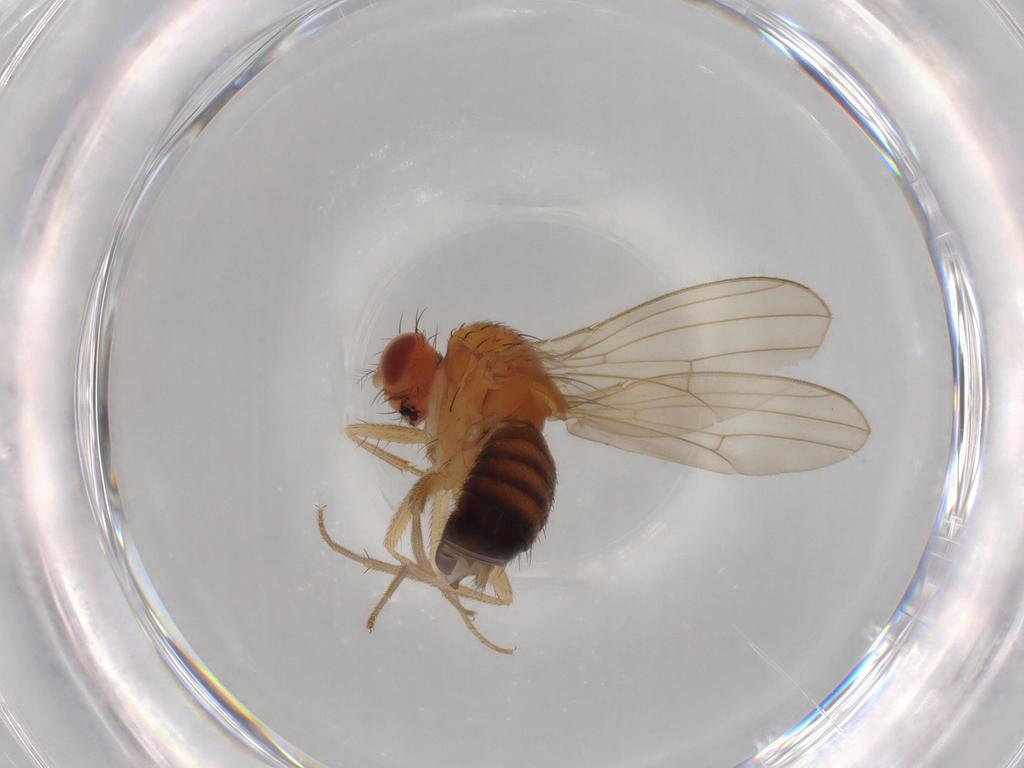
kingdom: Animalia
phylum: Arthropoda
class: Insecta
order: Diptera
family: Drosophilidae
